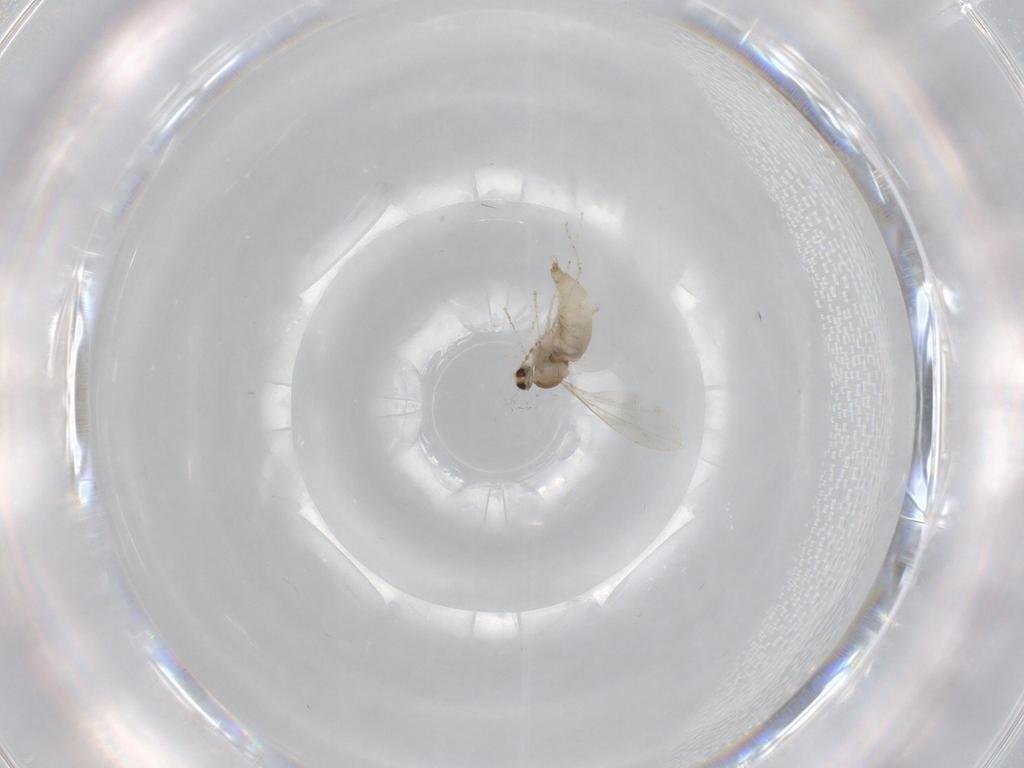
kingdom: Animalia
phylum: Arthropoda
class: Insecta
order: Diptera
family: Cecidomyiidae
